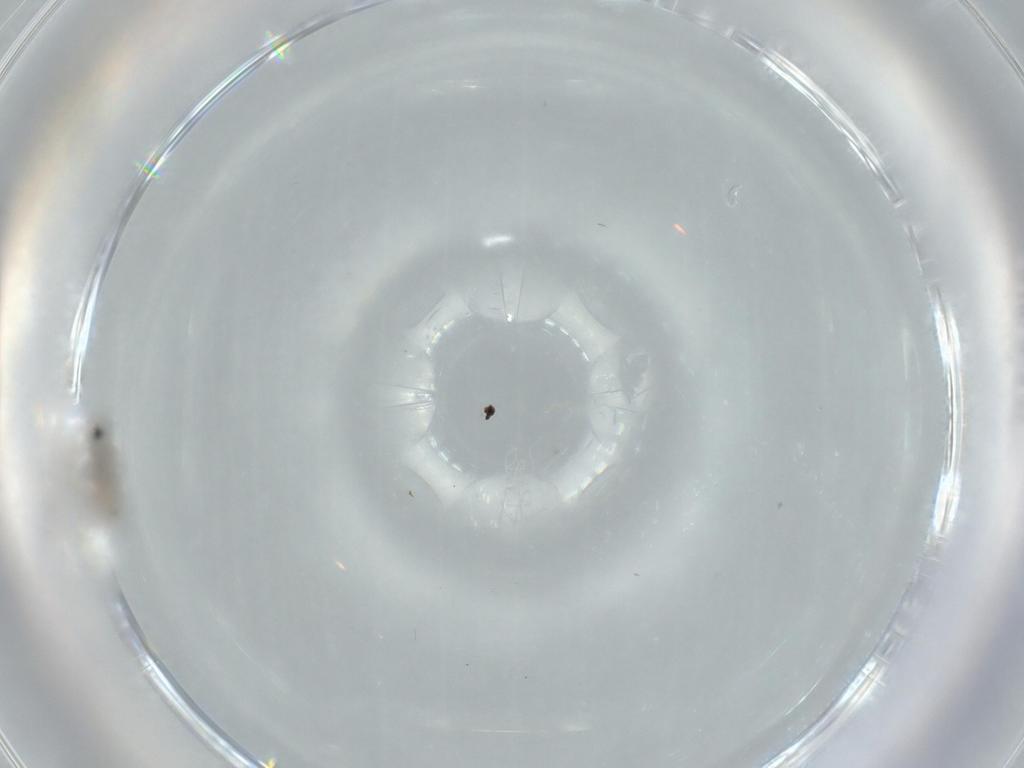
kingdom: Animalia
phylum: Arthropoda
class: Insecta
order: Diptera
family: Cecidomyiidae
